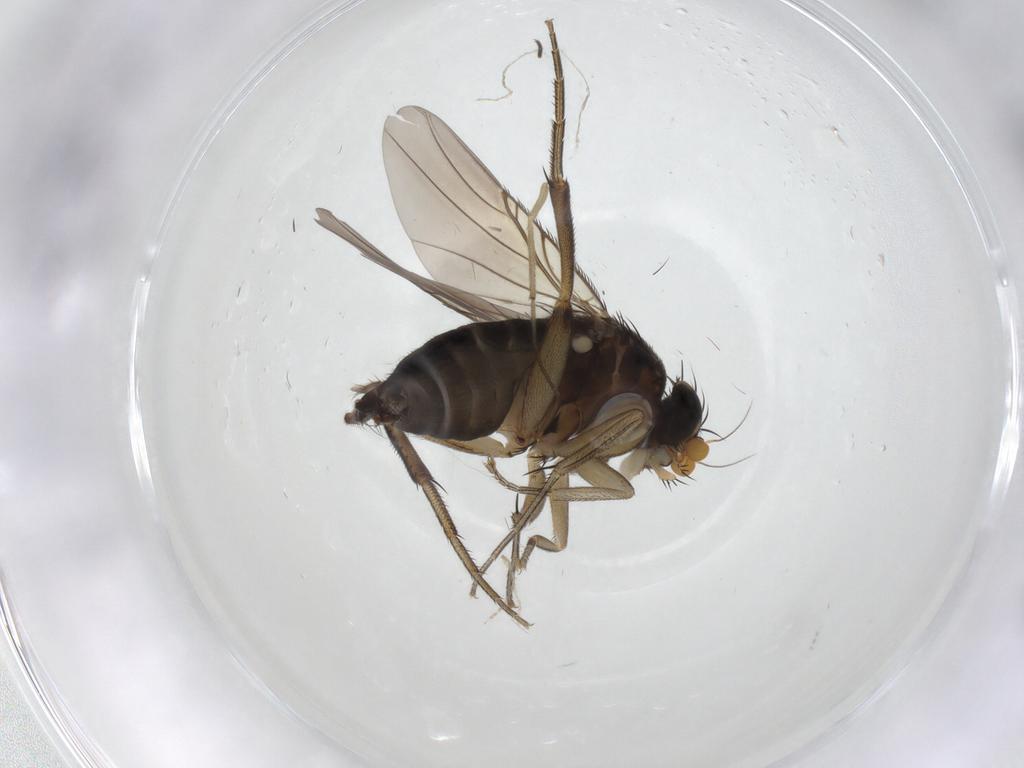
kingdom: Animalia
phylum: Arthropoda
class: Insecta
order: Diptera
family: Phoridae
